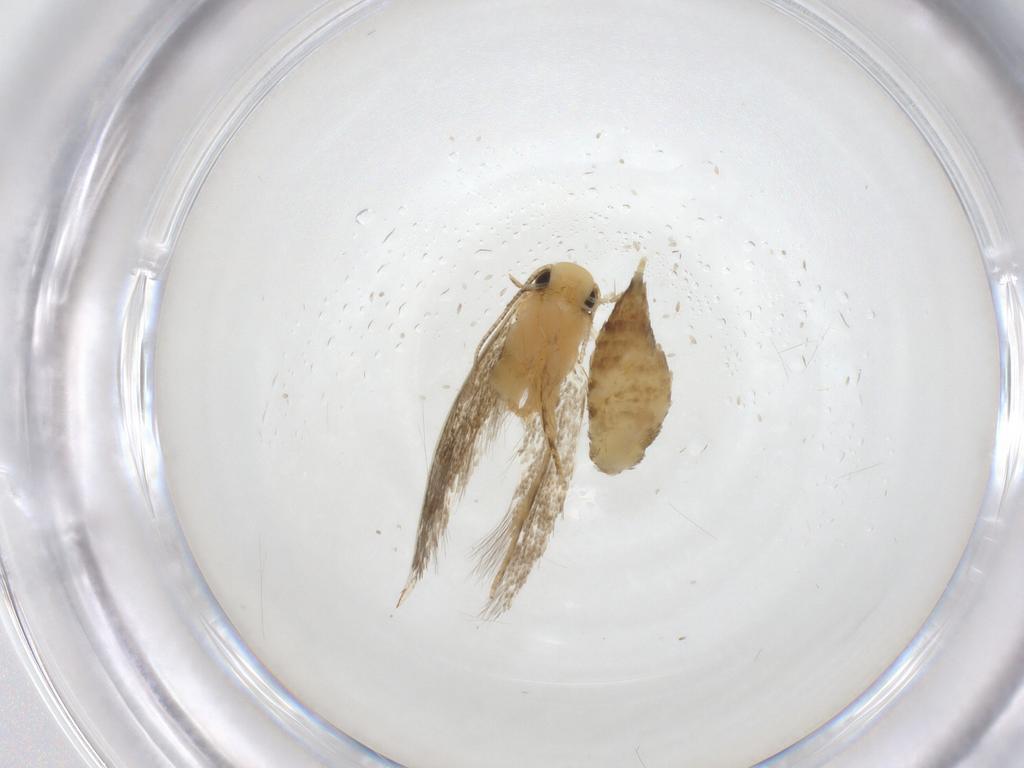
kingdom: Animalia
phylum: Arthropoda
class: Insecta
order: Lepidoptera
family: Tineidae
